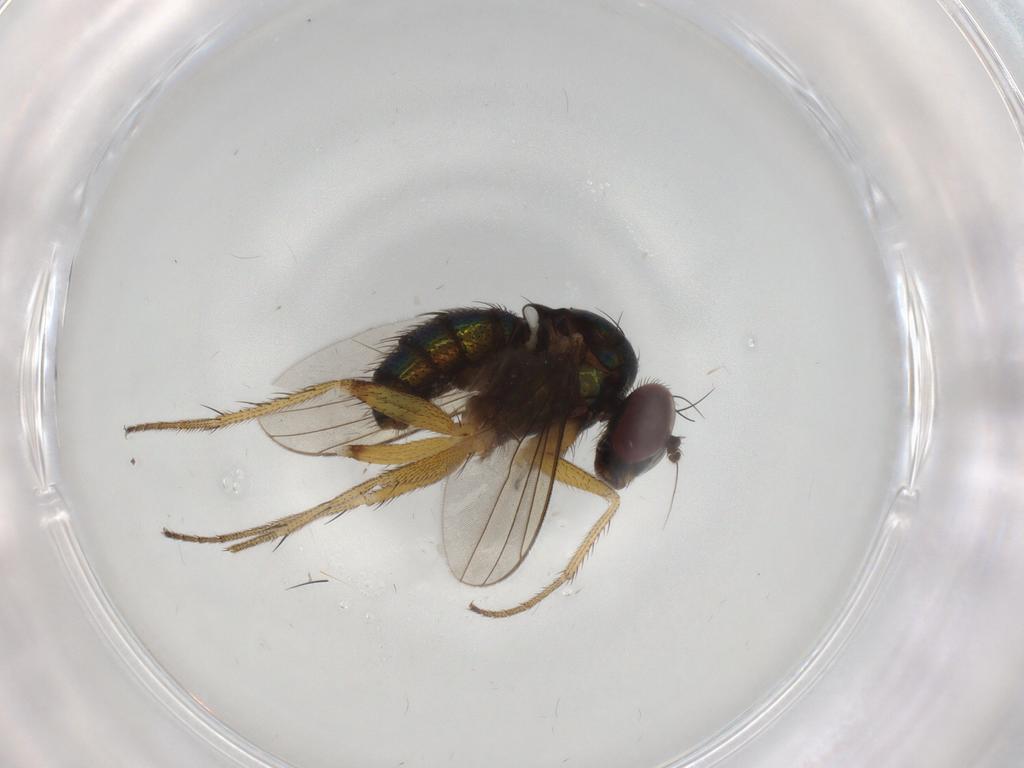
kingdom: Animalia
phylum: Arthropoda
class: Insecta
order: Diptera
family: Dolichopodidae
